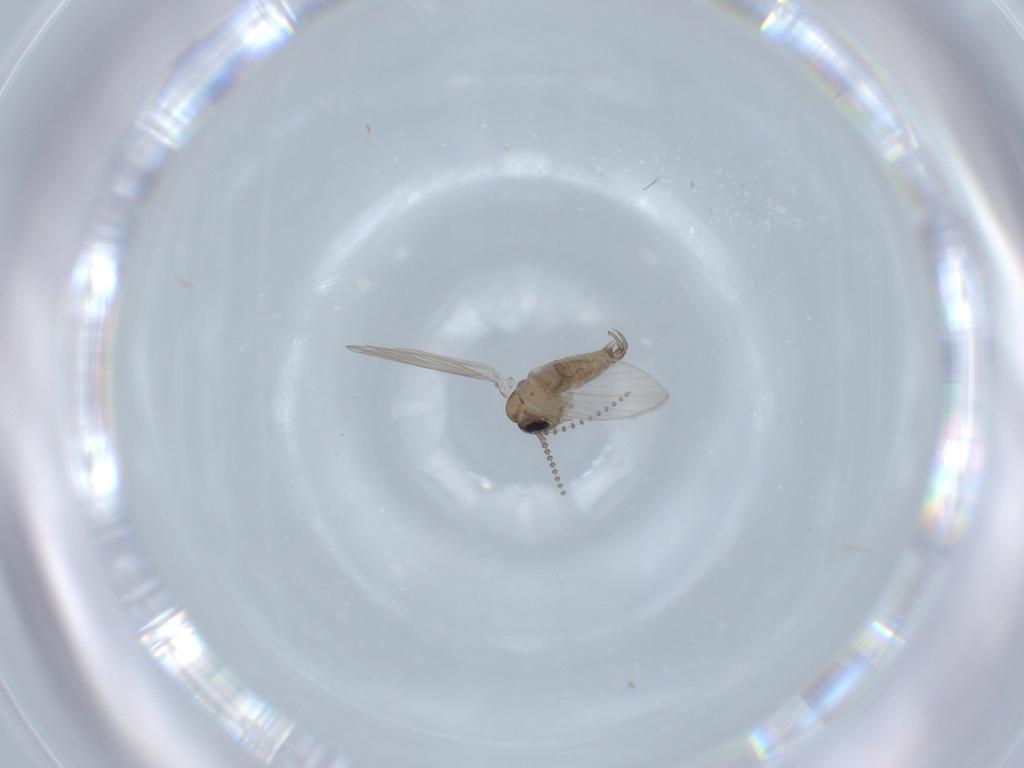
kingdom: Animalia
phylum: Arthropoda
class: Insecta
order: Diptera
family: Psychodidae
